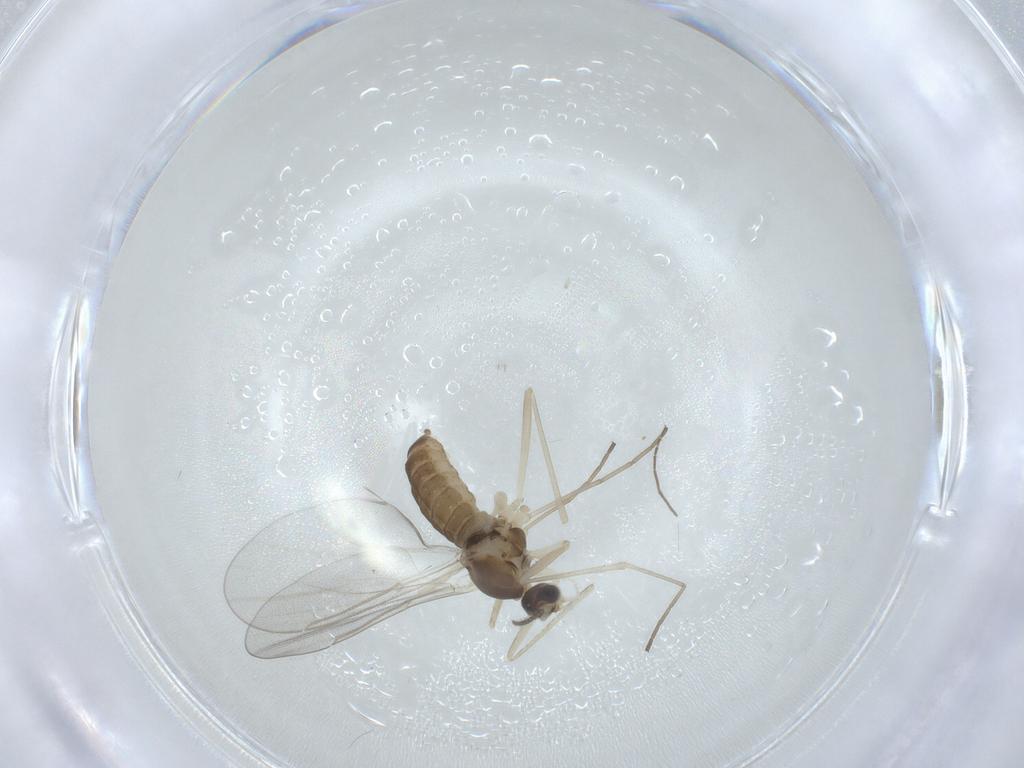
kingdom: Animalia
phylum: Arthropoda
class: Insecta
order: Diptera
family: Cecidomyiidae
